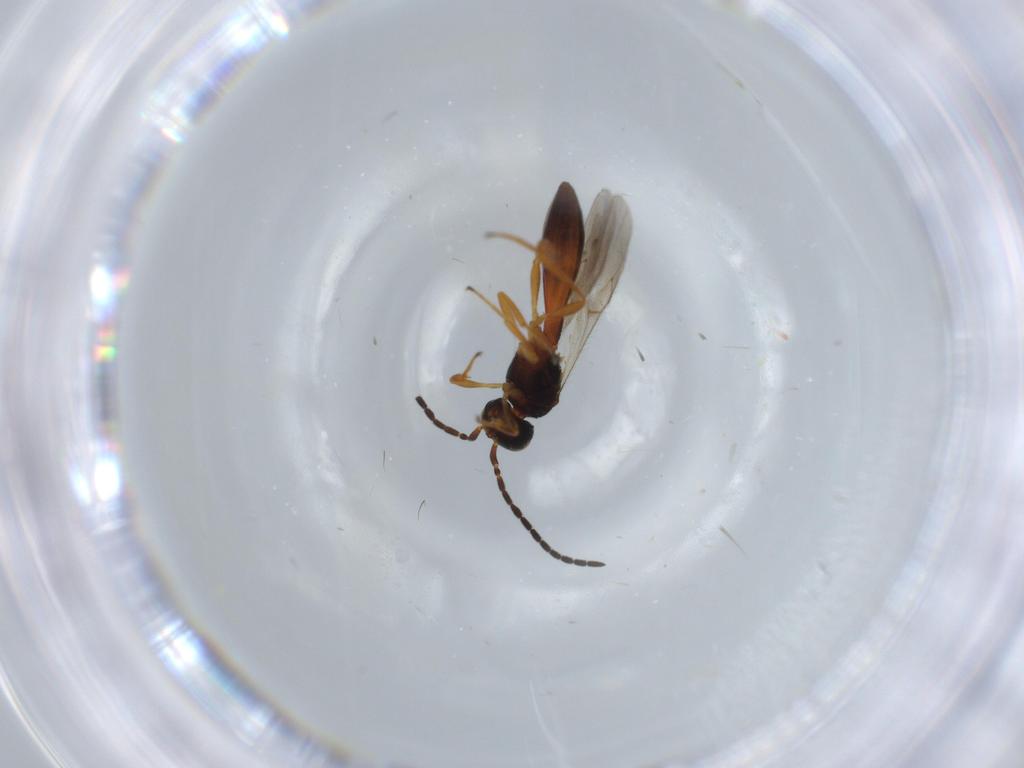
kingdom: Animalia
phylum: Arthropoda
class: Insecta
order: Hymenoptera
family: Scelionidae
